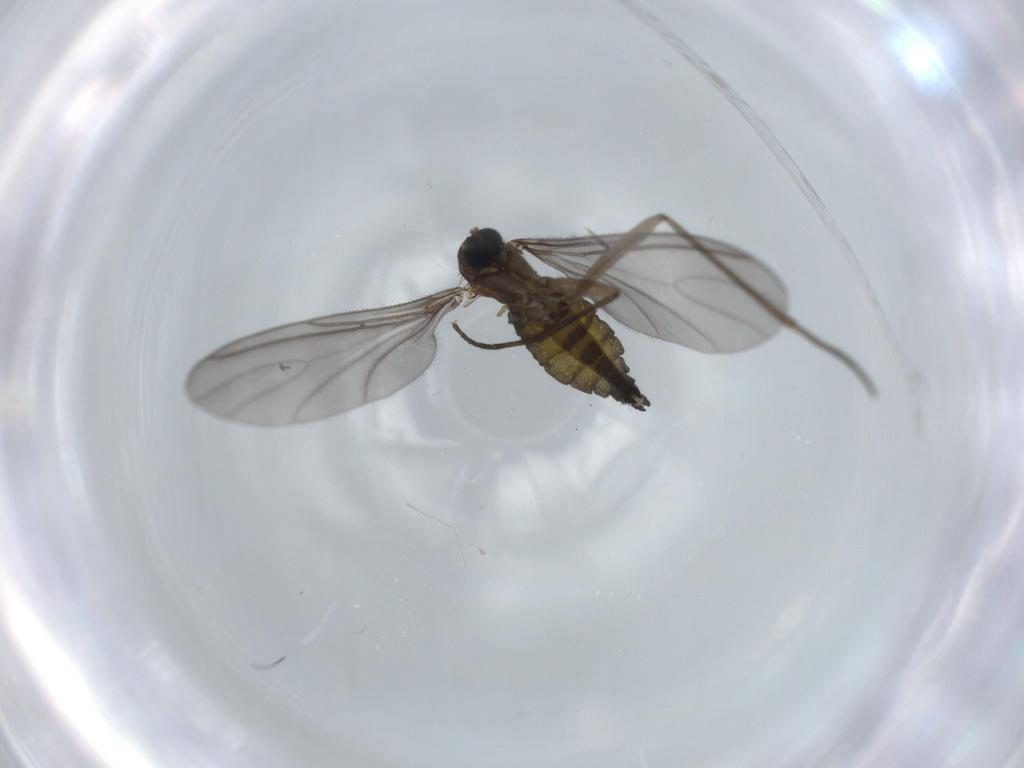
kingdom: Animalia
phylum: Arthropoda
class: Insecta
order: Diptera
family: Sciaridae
